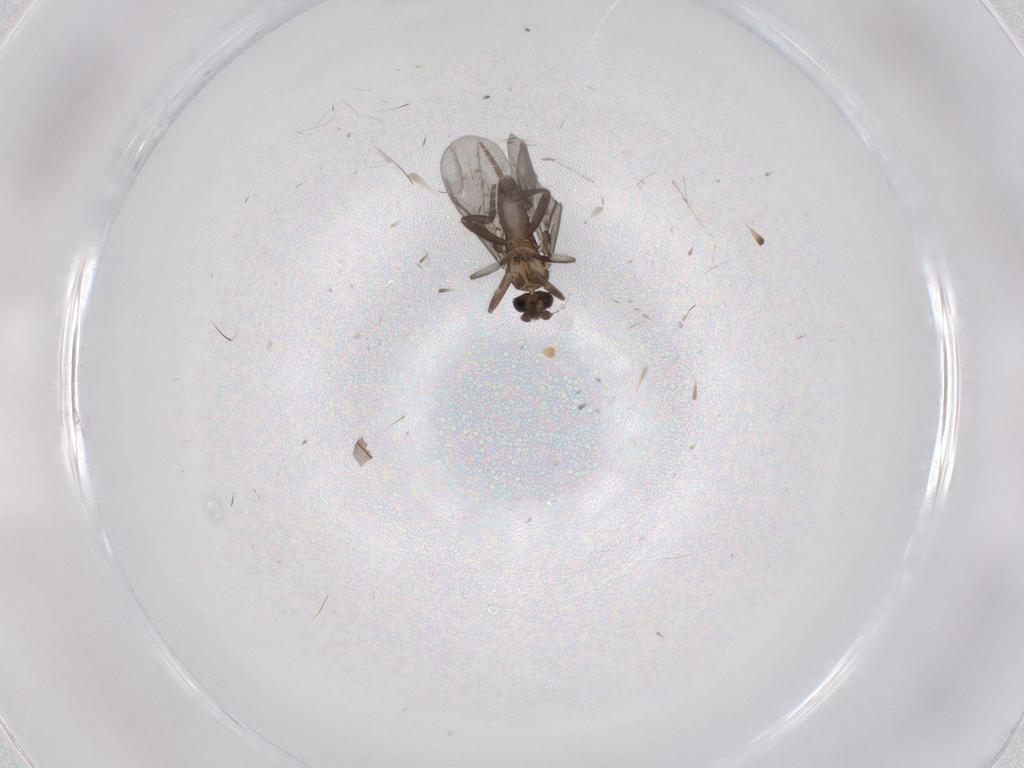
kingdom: Animalia
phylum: Arthropoda
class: Insecta
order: Diptera
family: Phoridae
